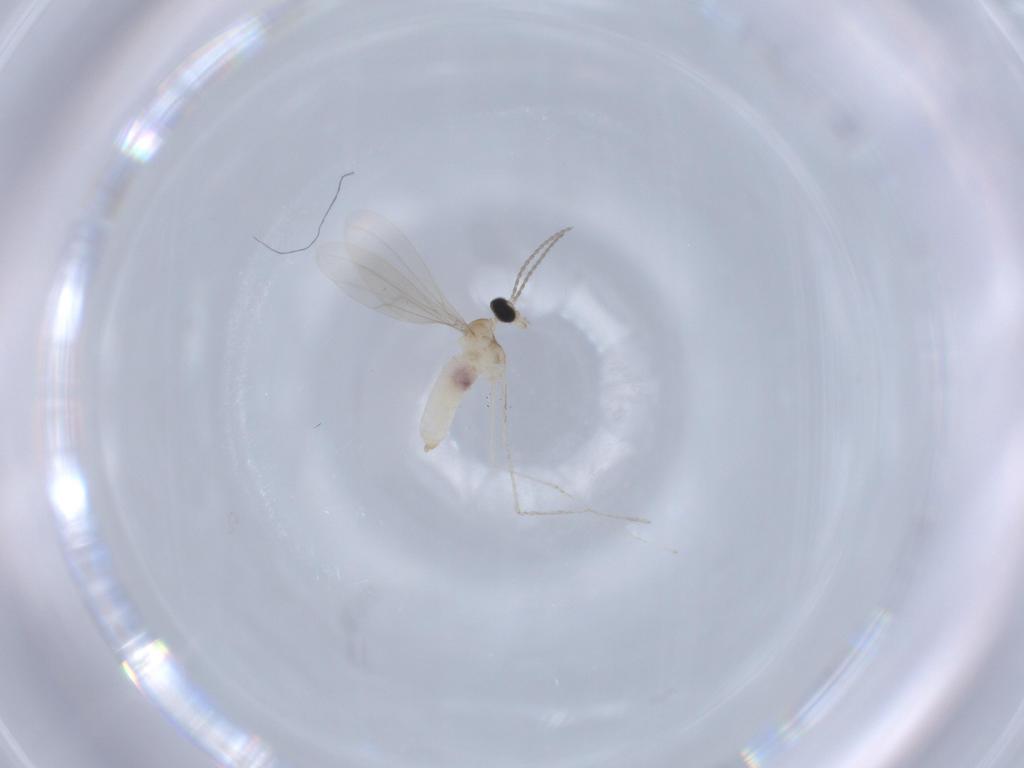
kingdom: Animalia
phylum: Arthropoda
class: Insecta
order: Diptera
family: Cecidomyiidae
